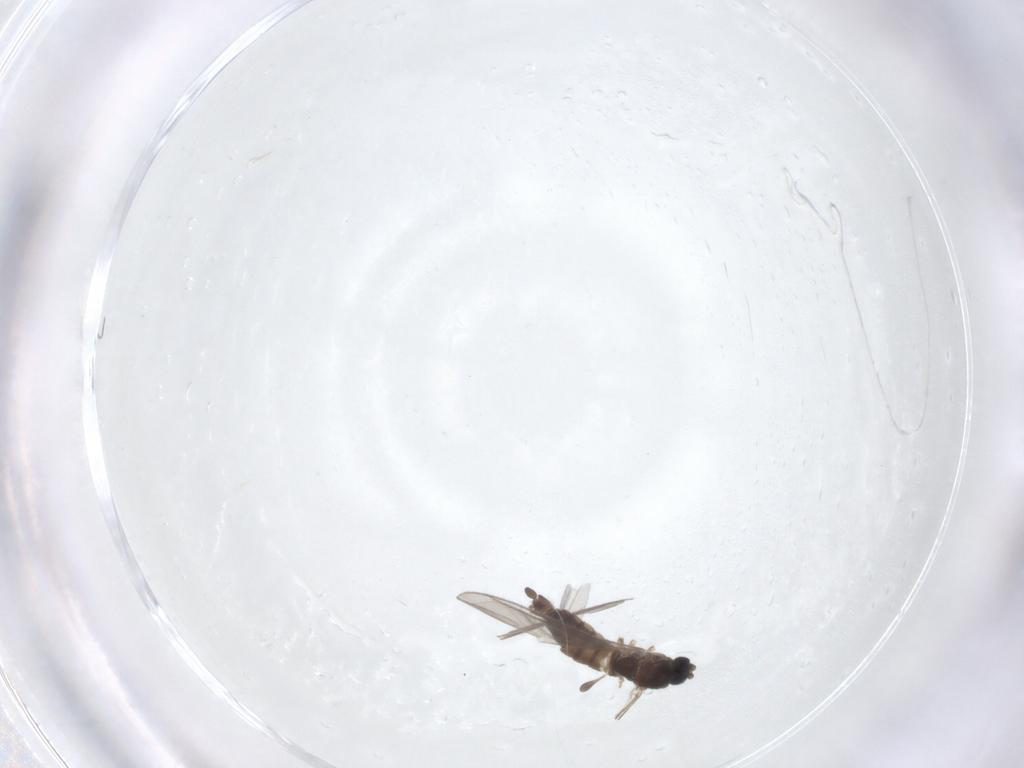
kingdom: Animalia
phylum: Arthropoda
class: Insecta
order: Diptera
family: Sciaridae
